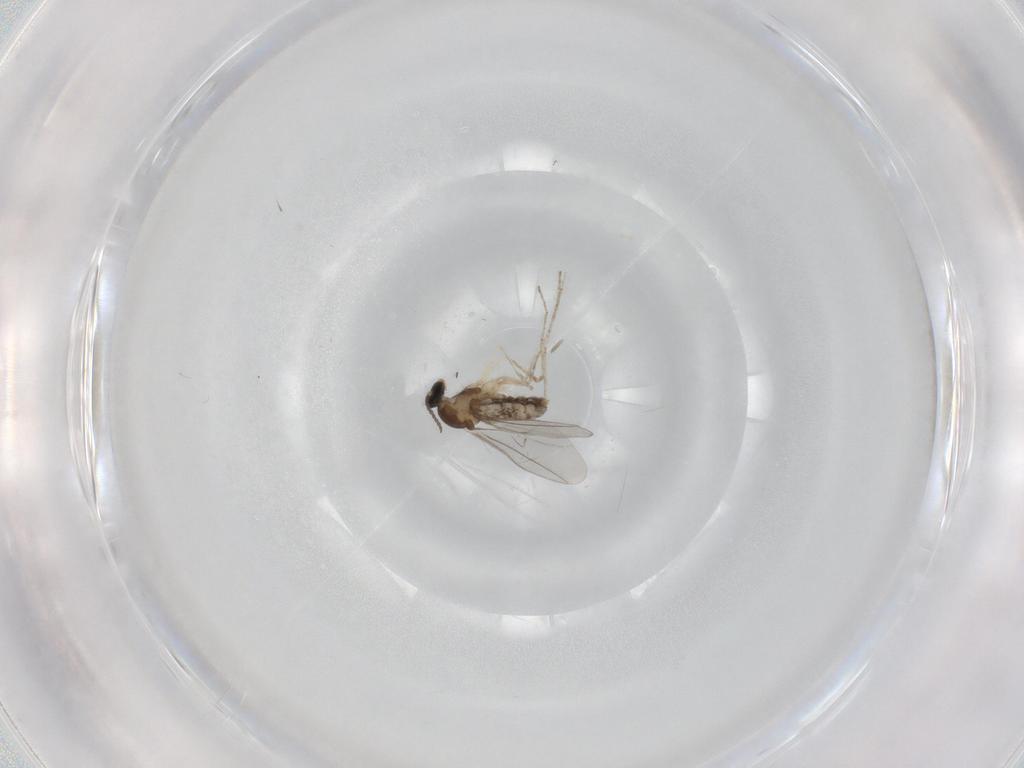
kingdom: Animalia
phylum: Arthropoda
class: Insecta
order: Diptera
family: Cecidomyiidae
